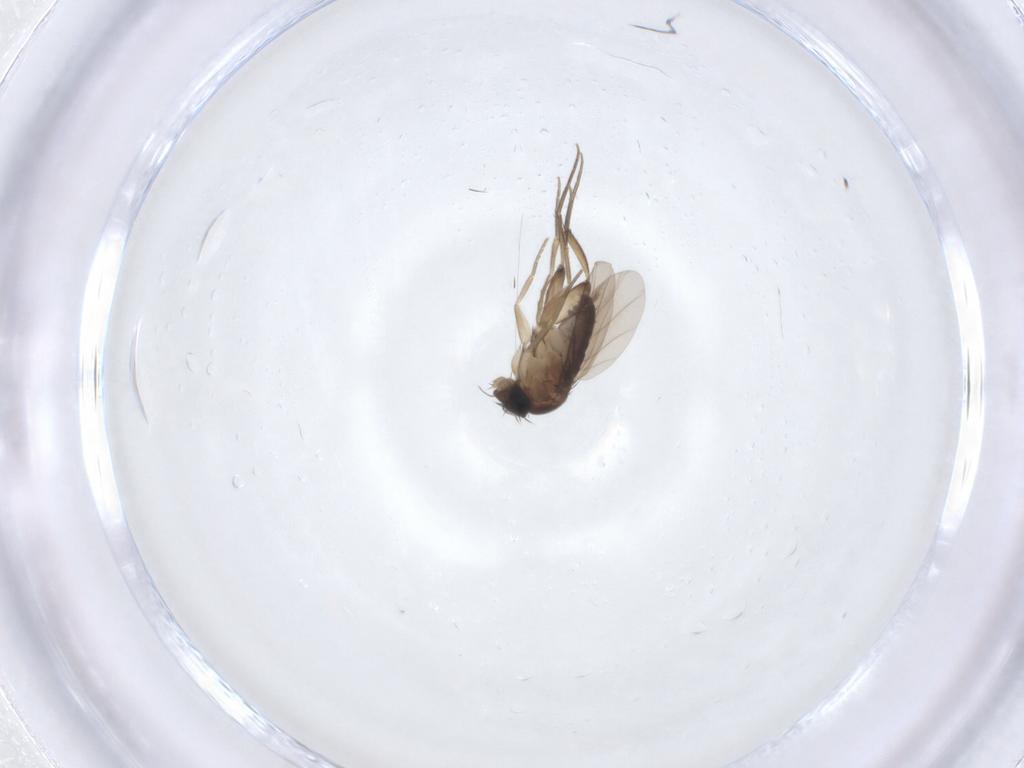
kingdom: Animalia
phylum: Arthropoda
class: Insecta
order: Diptera
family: Phoridae
